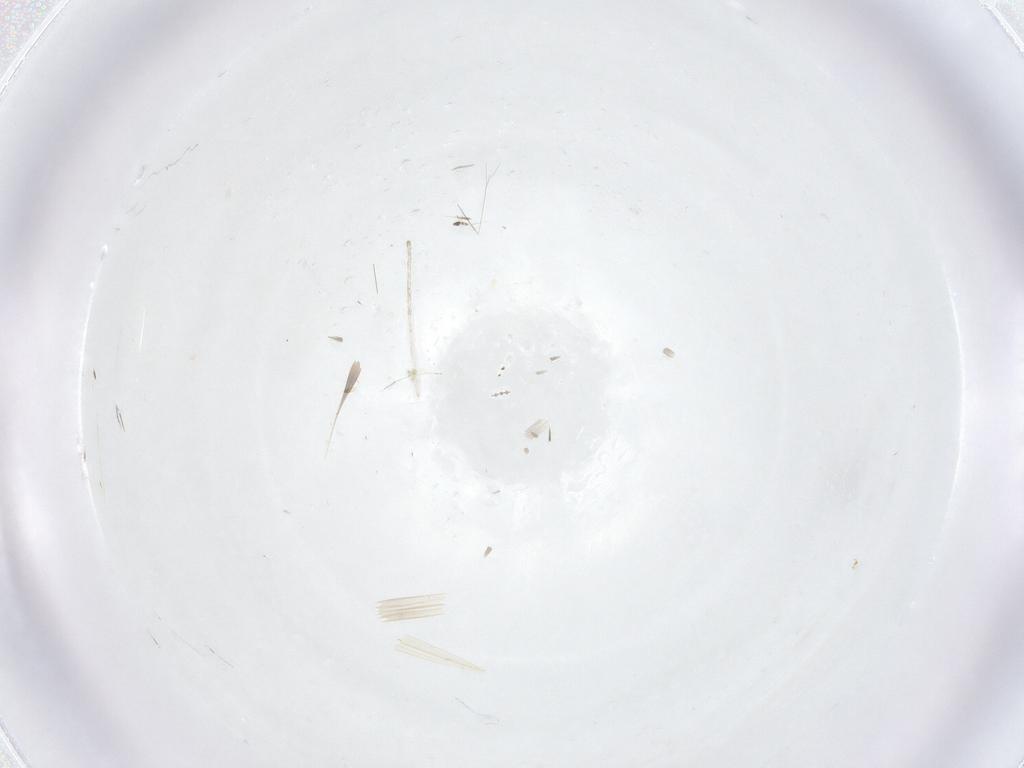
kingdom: Animalia
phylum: Arthropoda
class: Insecta
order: Diptera
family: Cecidomyiidae
